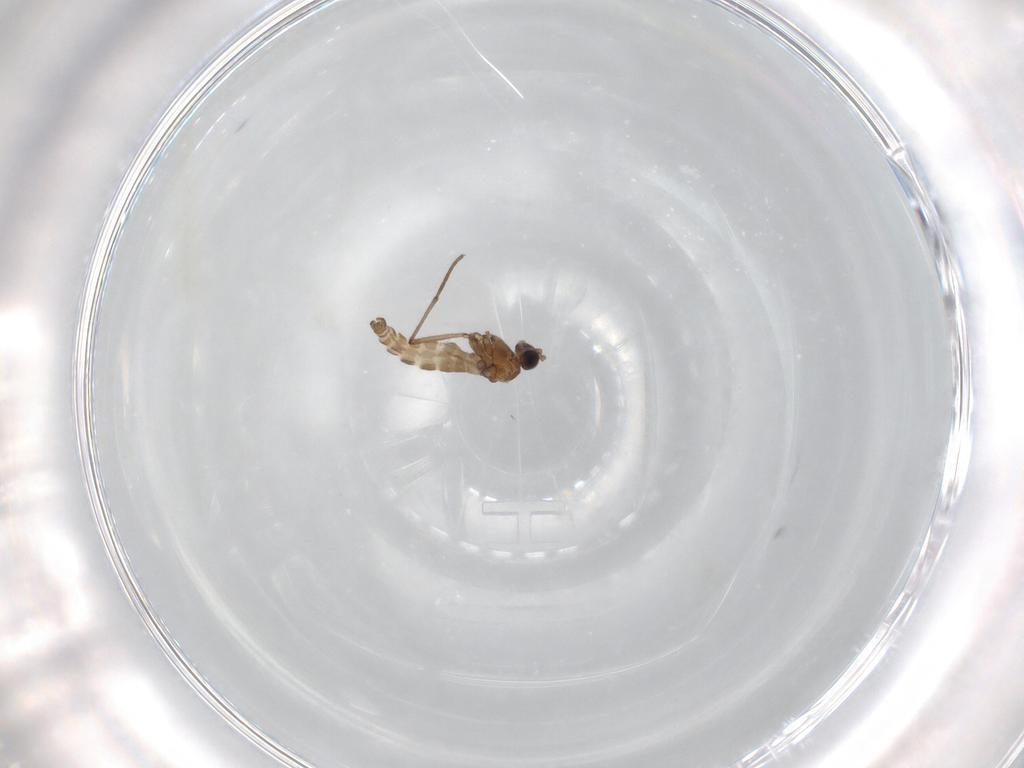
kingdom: Animalia
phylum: Arthropoda
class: Insecta
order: Diptera
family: Sciaridae
